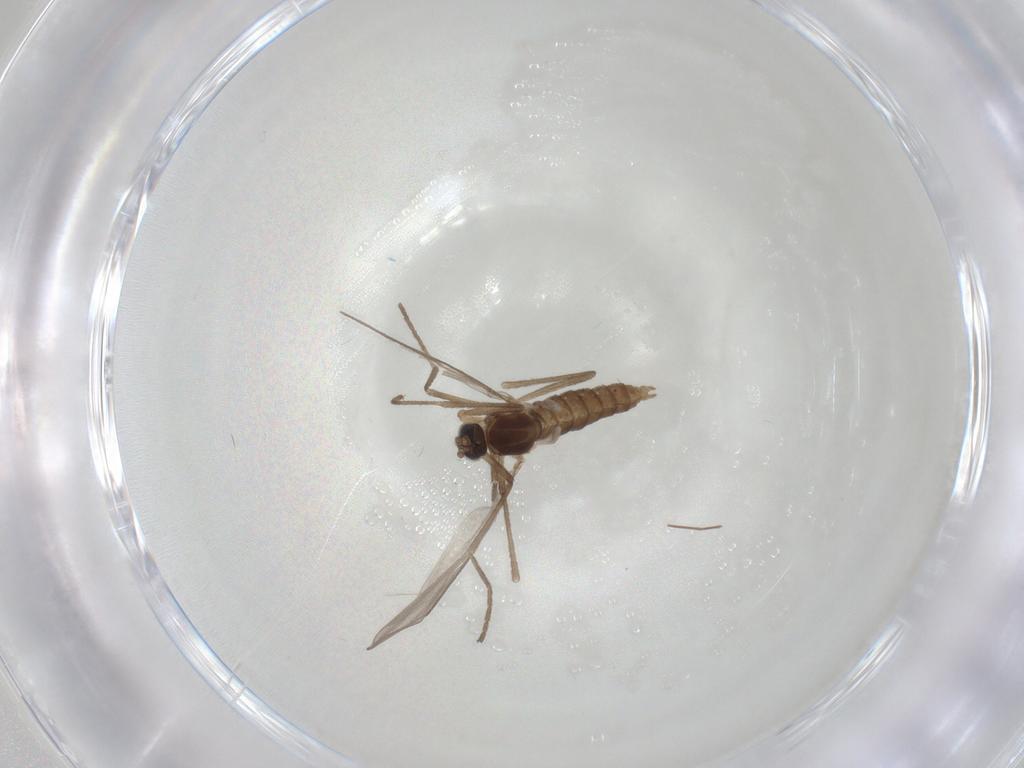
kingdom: Animalia
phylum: Arthropoda
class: Insecta
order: Diptera
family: Cecidomyiidae
